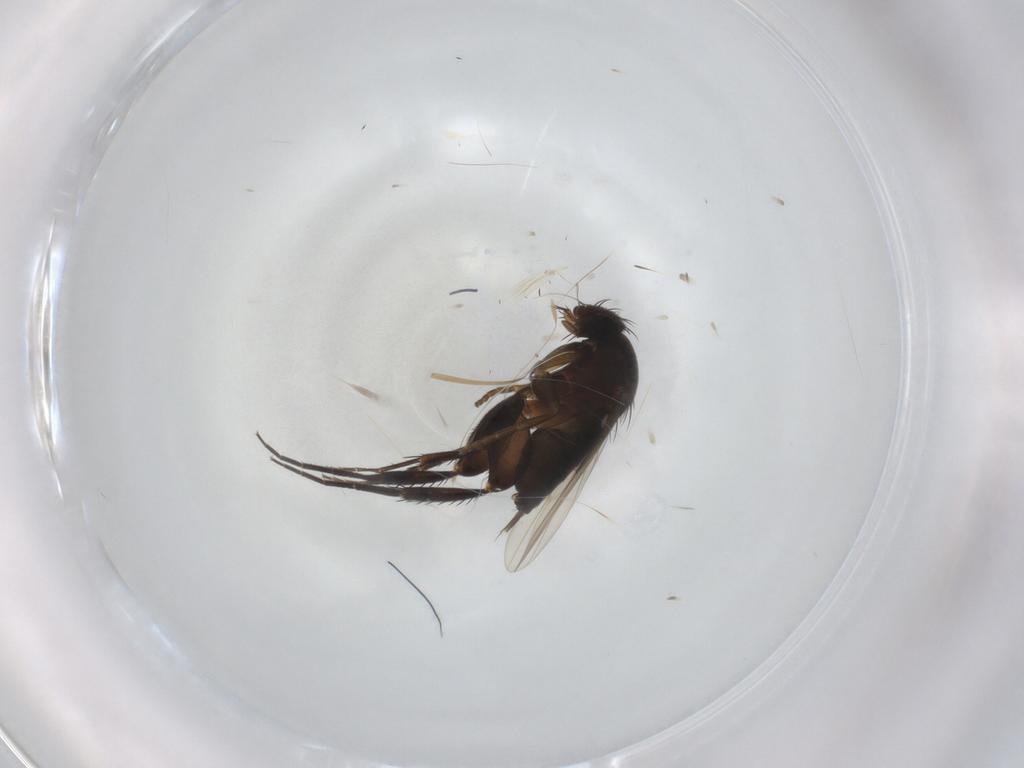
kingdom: Animalia
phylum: Arthropoda
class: Insecta
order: Diptera
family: Phoridae
